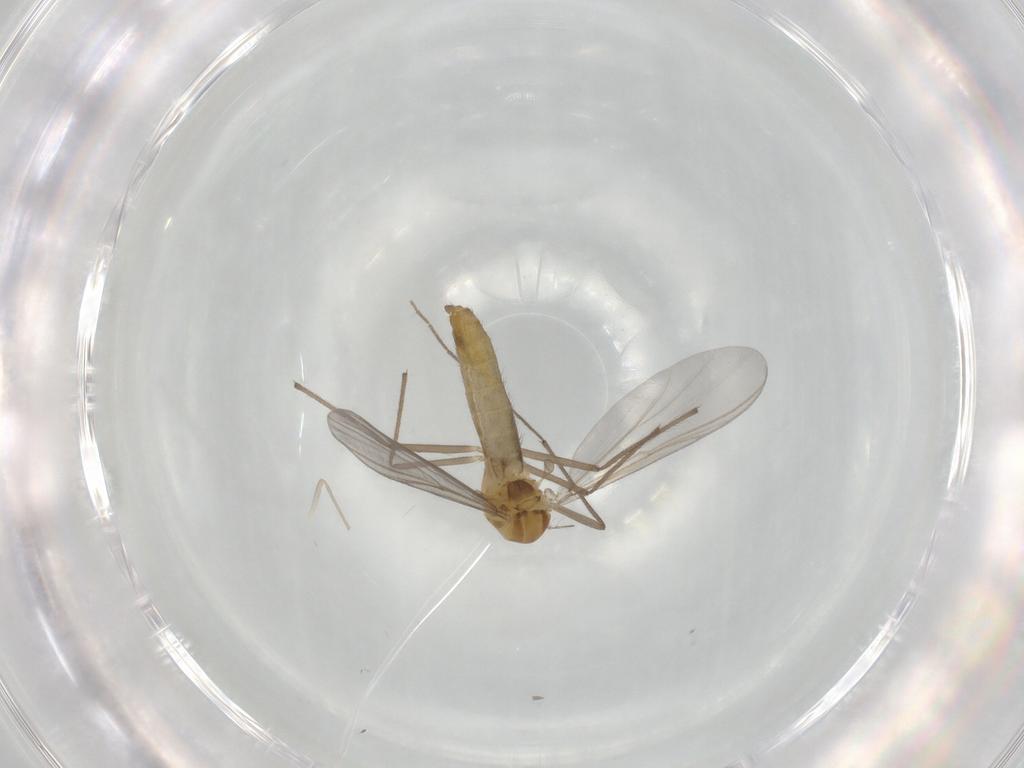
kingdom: Animalia
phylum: Arthropoda
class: Insecta
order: Diptera
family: Chironomidae
